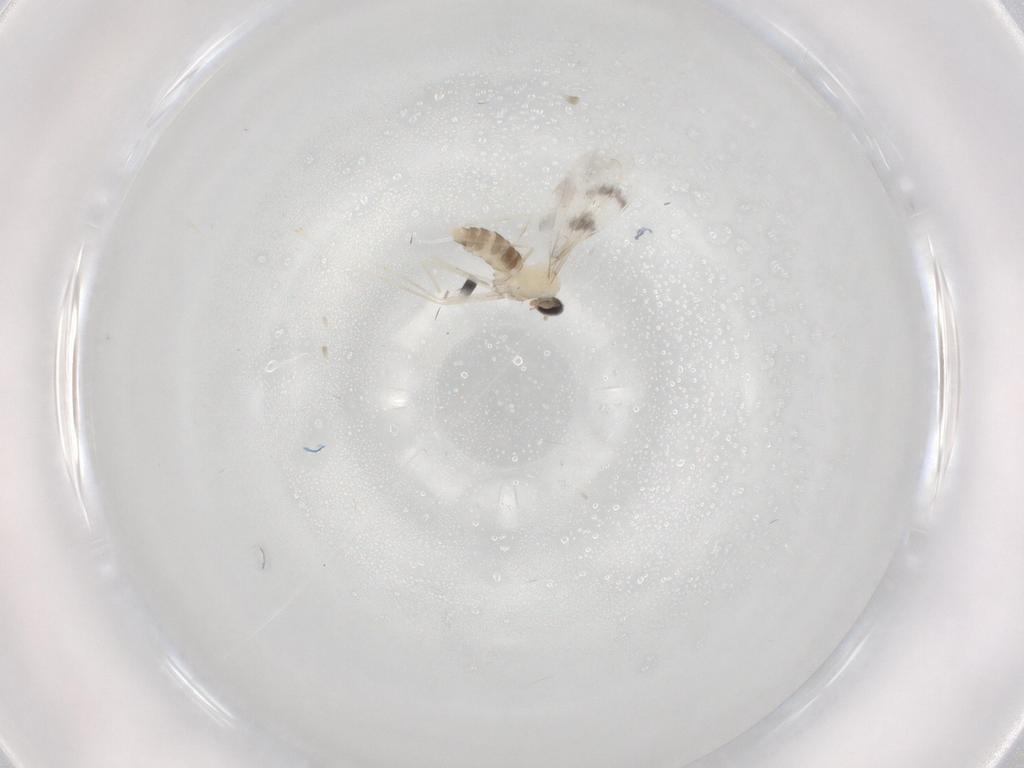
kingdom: Animalia
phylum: Arthropoda
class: Insecta
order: Diptera
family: Cecidomyiidae
